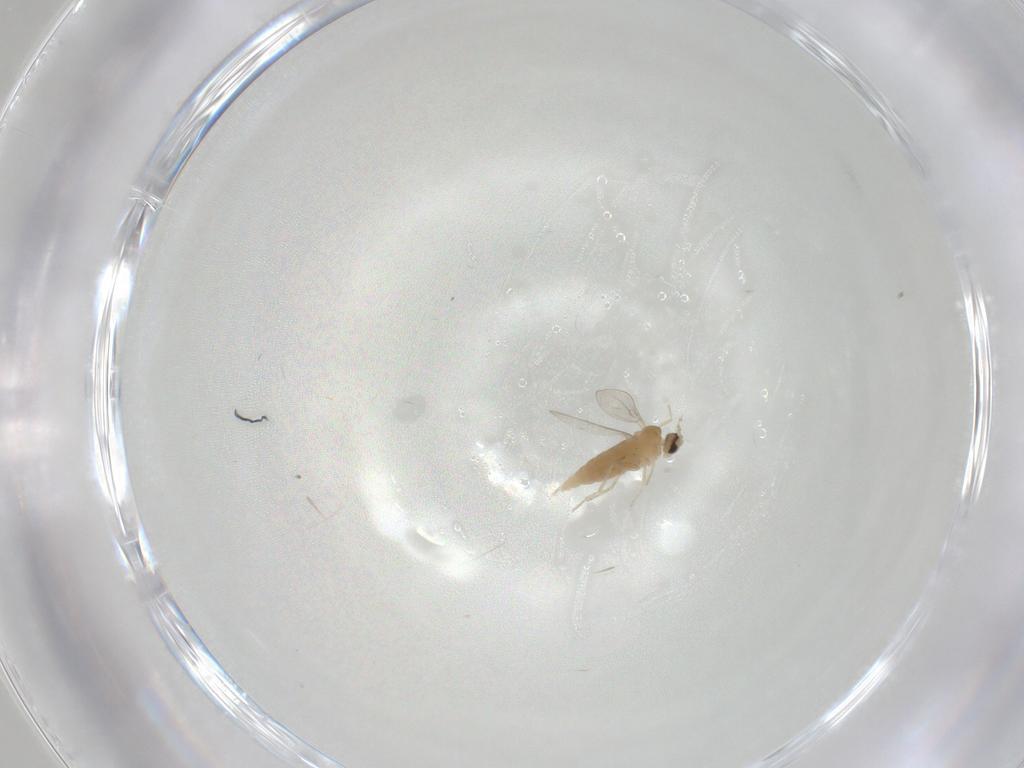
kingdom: Animalia
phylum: Arthropoda
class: Insecta
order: Diptera
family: Cecidomyiidae
